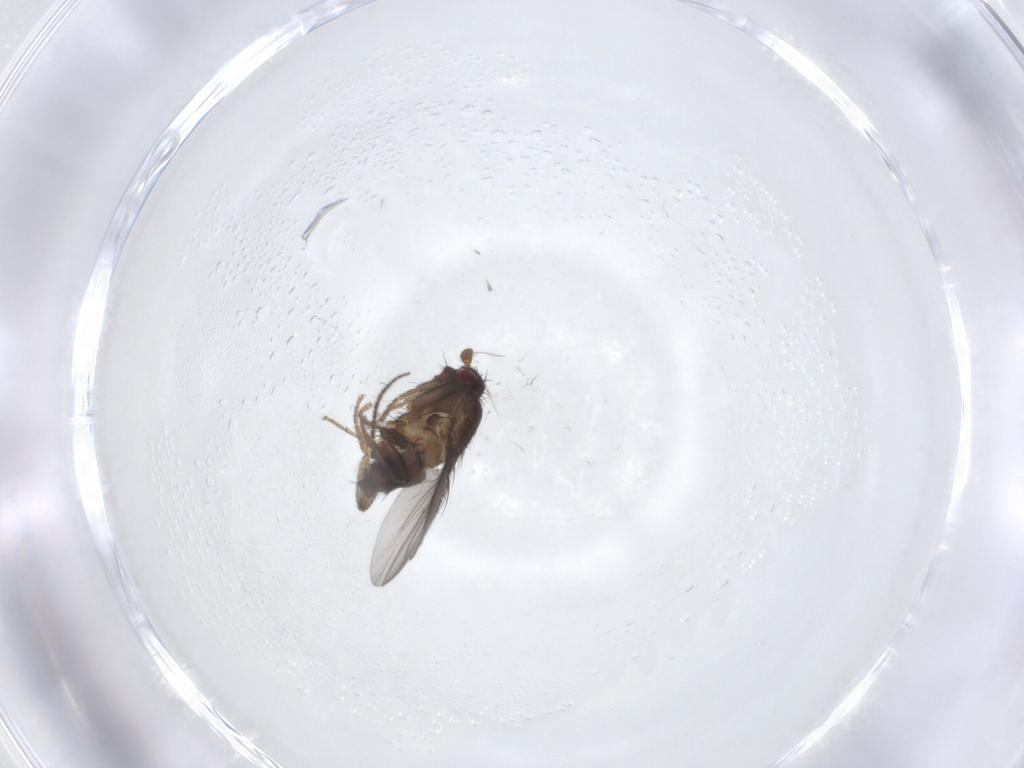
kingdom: Animalia
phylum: Arthropoda
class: Insecta
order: Diptera
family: Sciaridae
